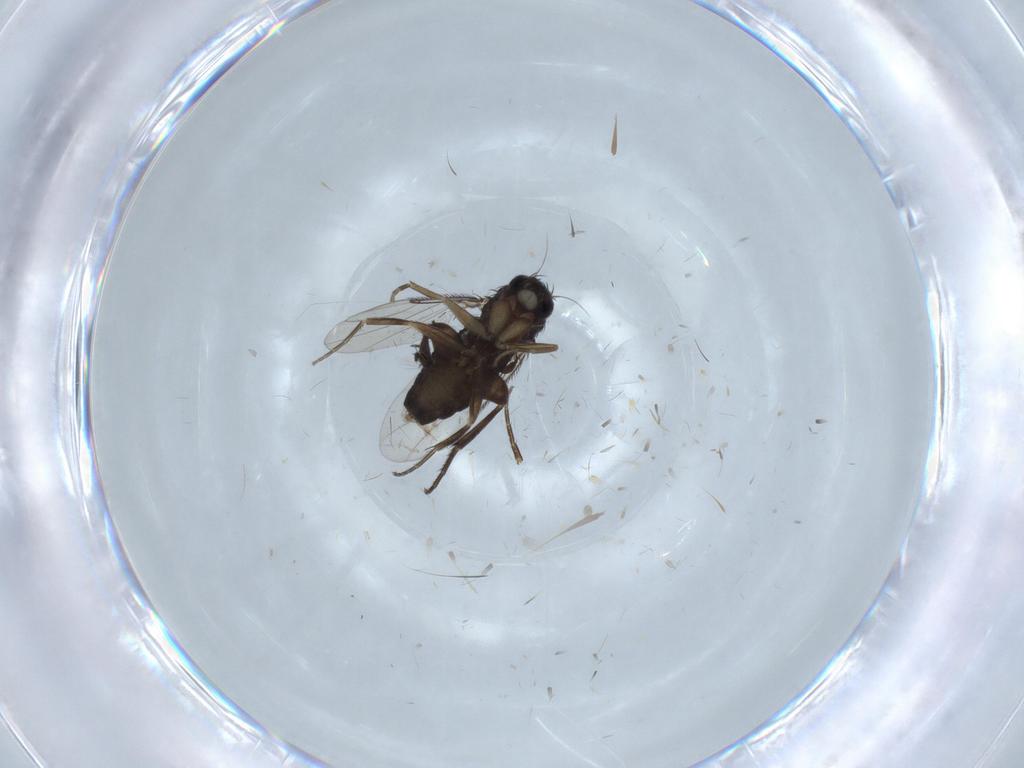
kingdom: Animalia
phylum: Arthropoda
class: Insecta
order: Diptera
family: Phoridae
